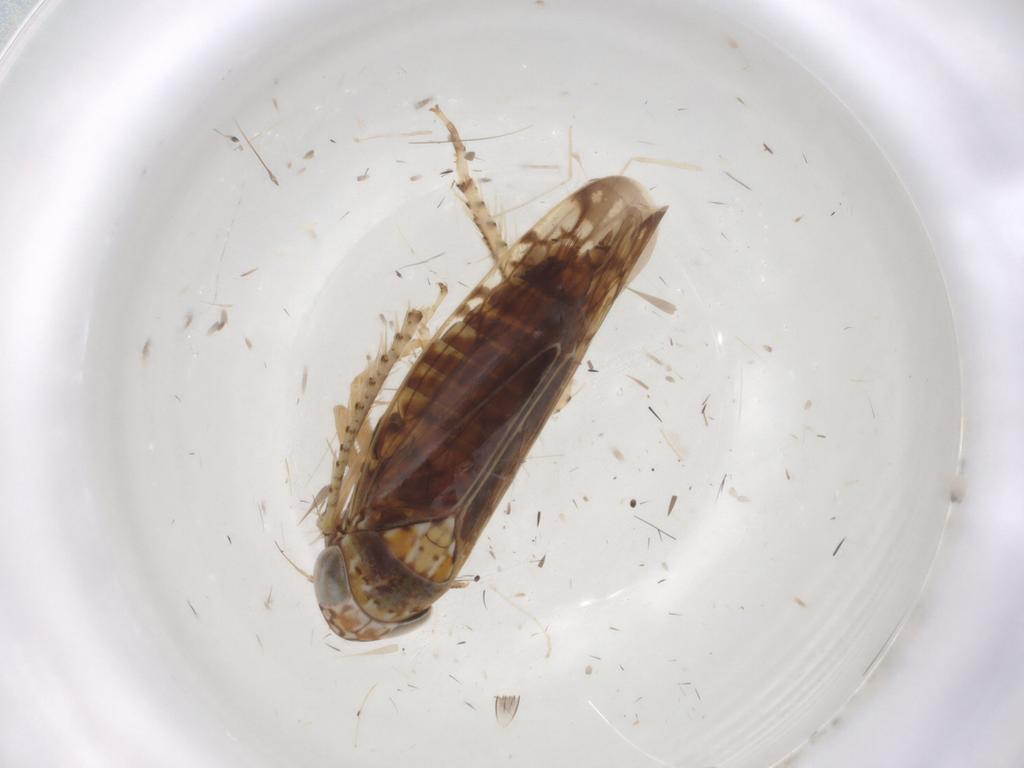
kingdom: Animalia
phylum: Arthropoda
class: Insecta
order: Hemiptera
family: Cicadellidae
